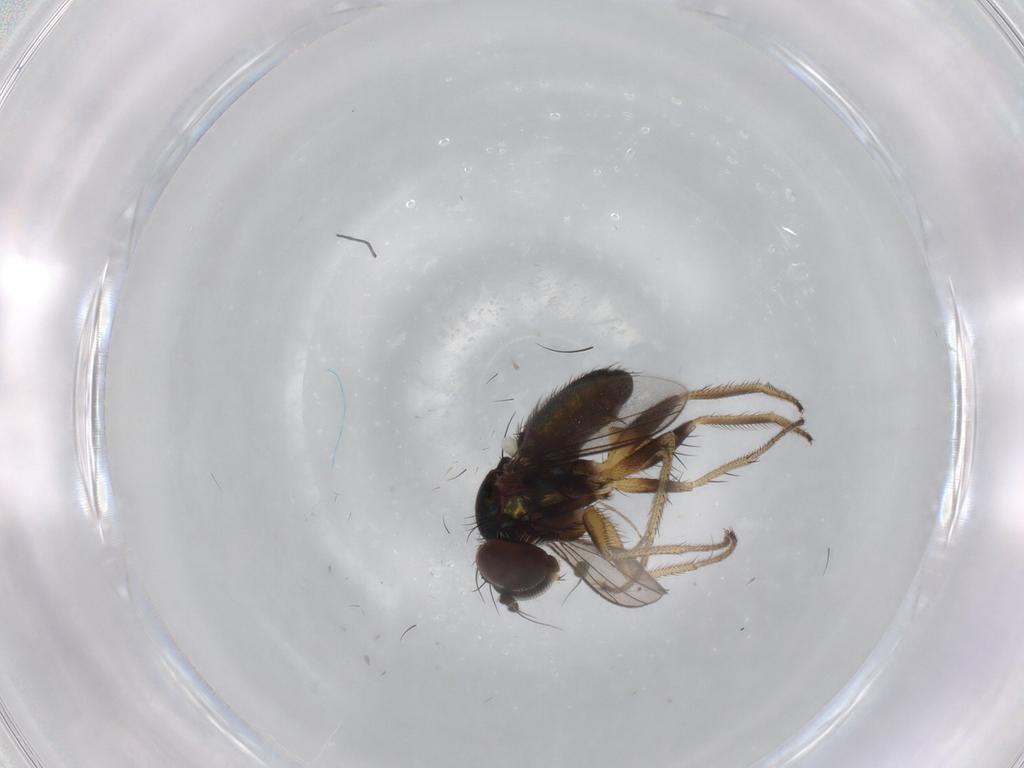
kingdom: Animalia
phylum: Arthropoda
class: Insecta
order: Diptera
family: Dolichopodidae
